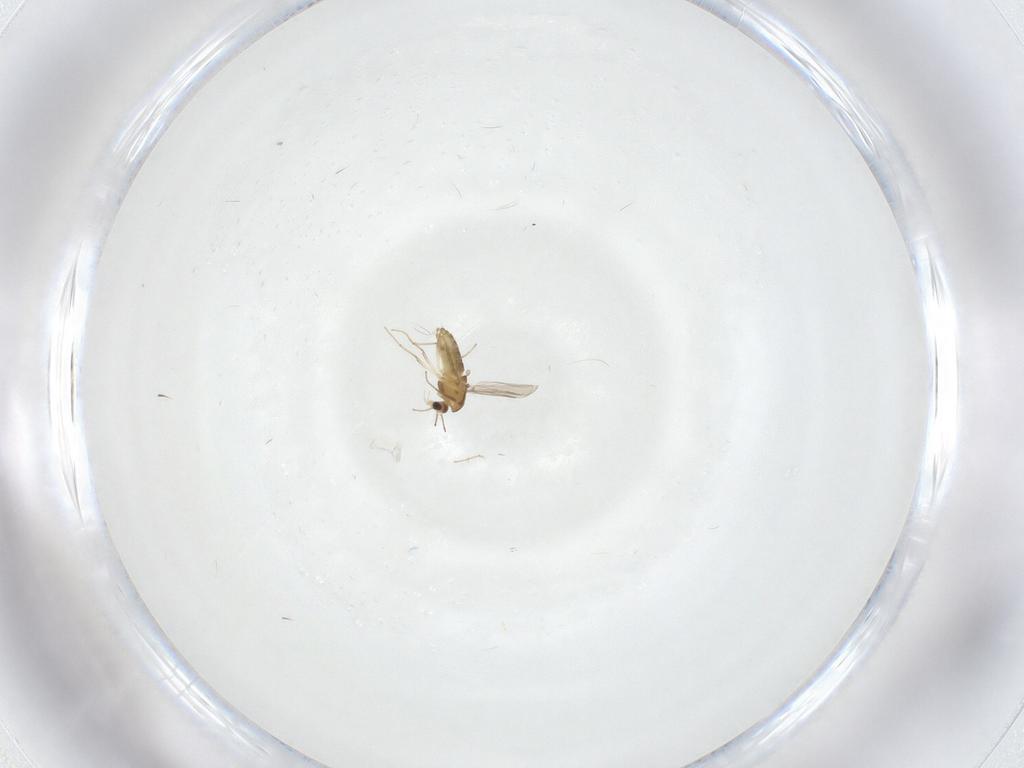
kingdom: Animalia
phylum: Arthropoda
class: Insecta
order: Diptera
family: Chironomidae
